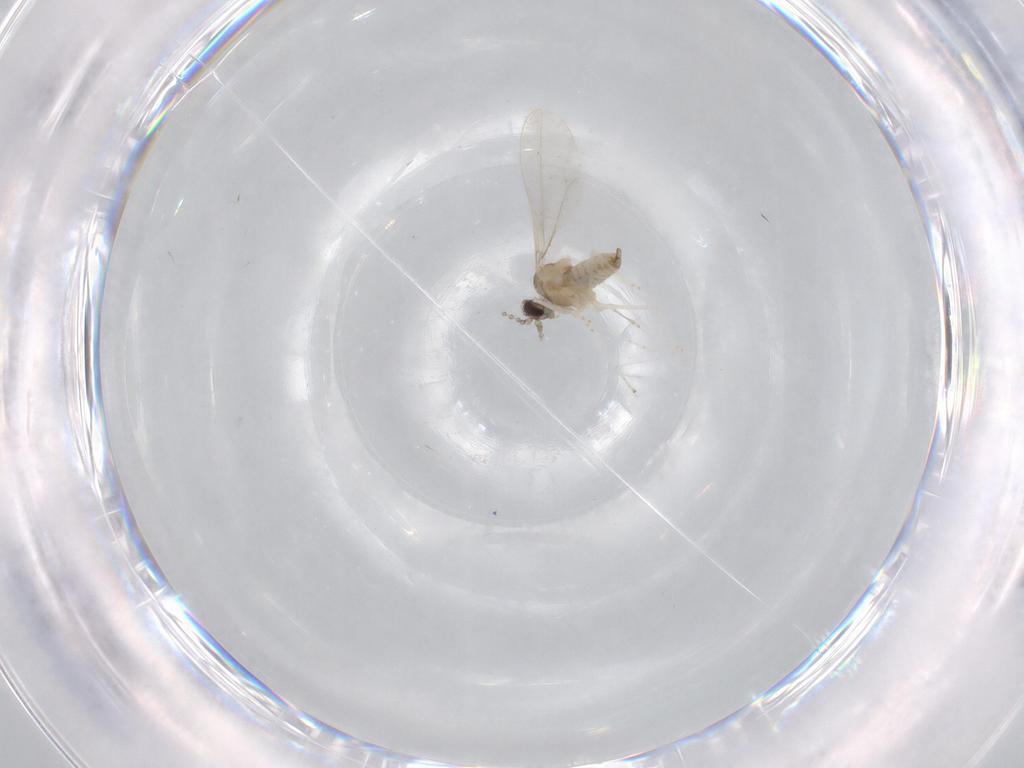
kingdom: Animalia
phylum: Arthropoda
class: Insecta
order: Diptera
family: Cecidomyiidae
